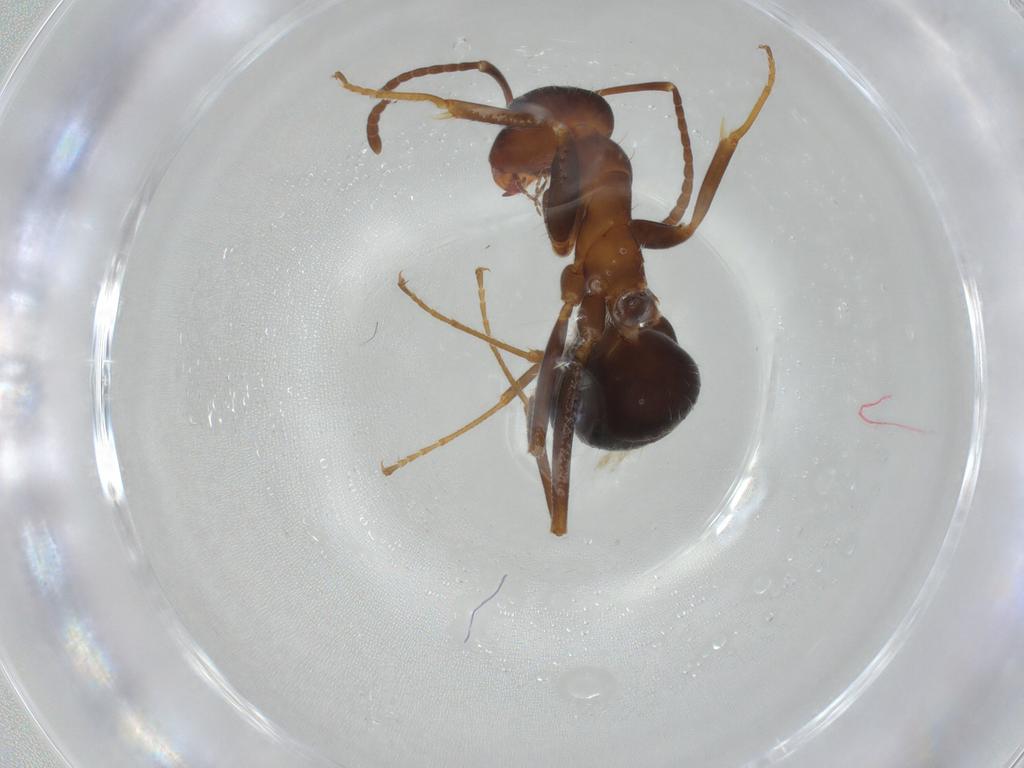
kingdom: Animalia
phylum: Arthropoda
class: Insecta
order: Hymenoptera
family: Formicidae
